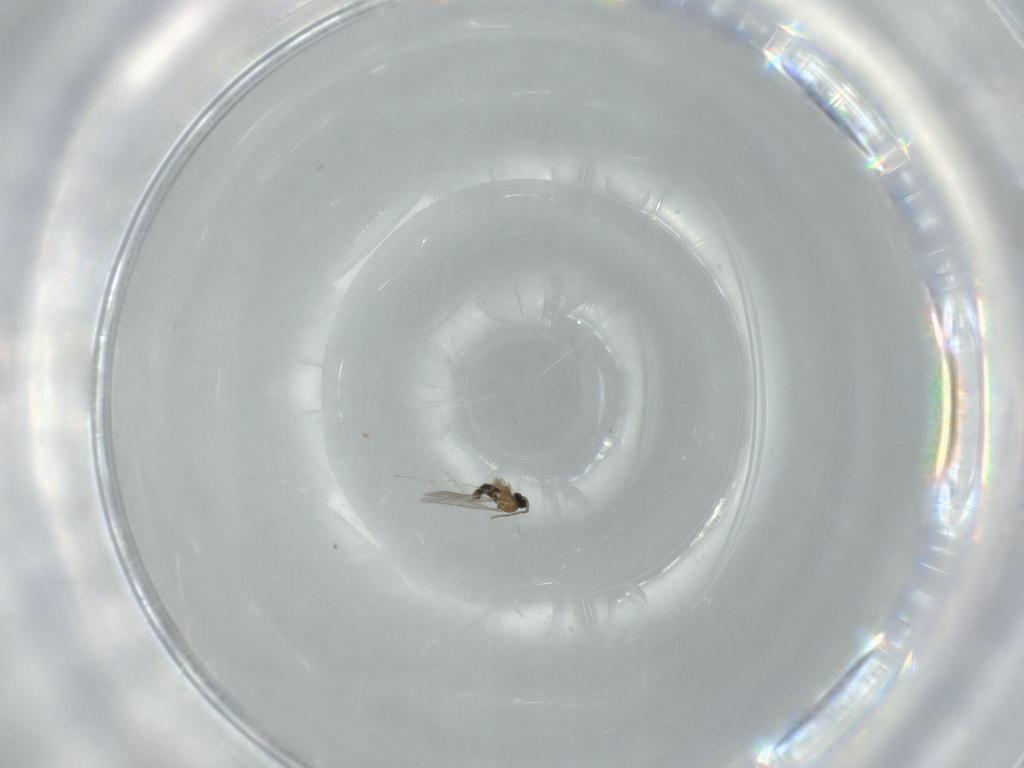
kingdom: Animalia
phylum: Arthropoda
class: Insecta
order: Diptera
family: Cecidomyiidae
